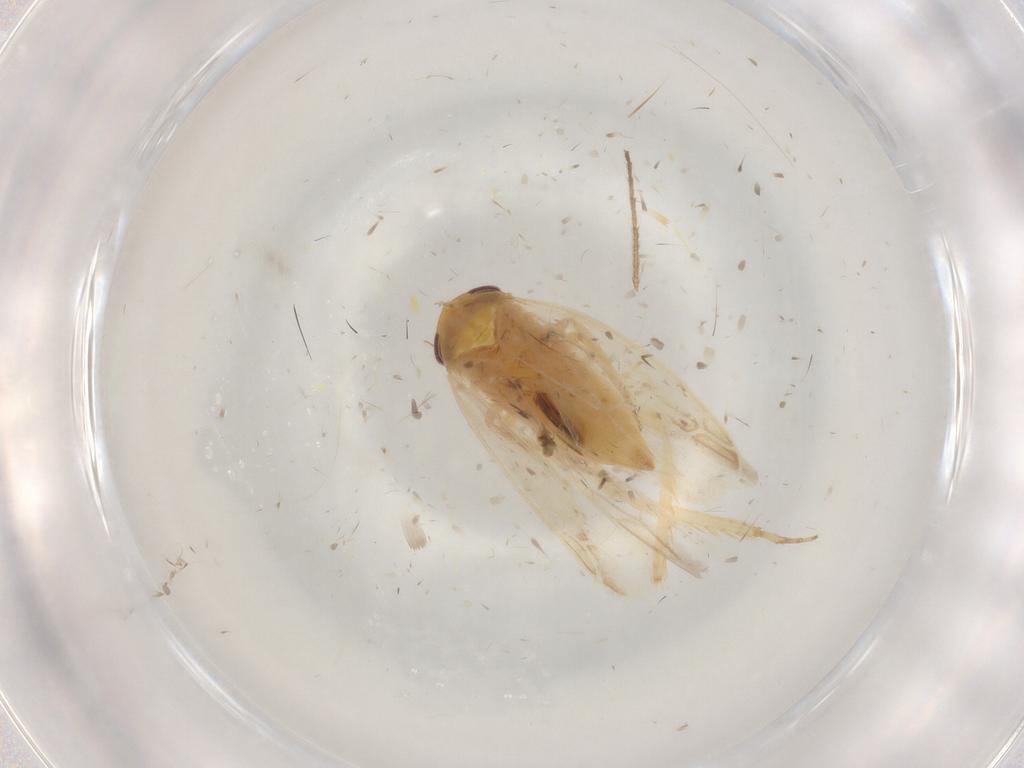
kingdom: Animalia
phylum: Arthropoda
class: Insecta
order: Hemiptera
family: Cicadellidae
